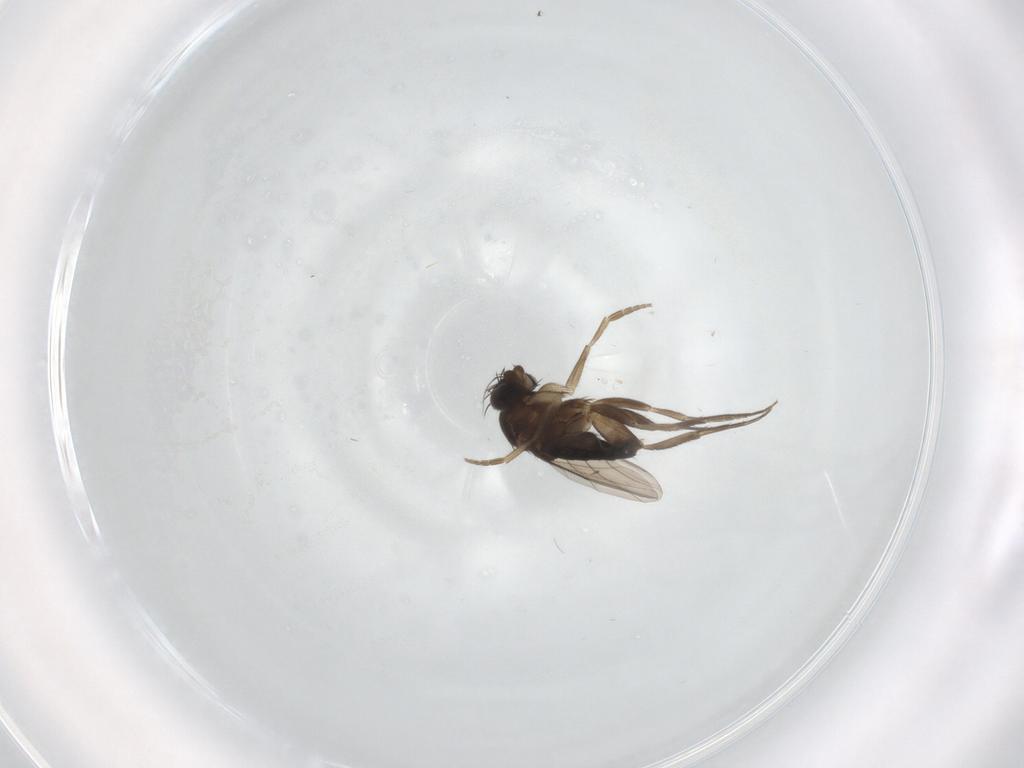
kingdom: Animalia
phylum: Arthropoda
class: Insecta
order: Diptera
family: Phoridae
